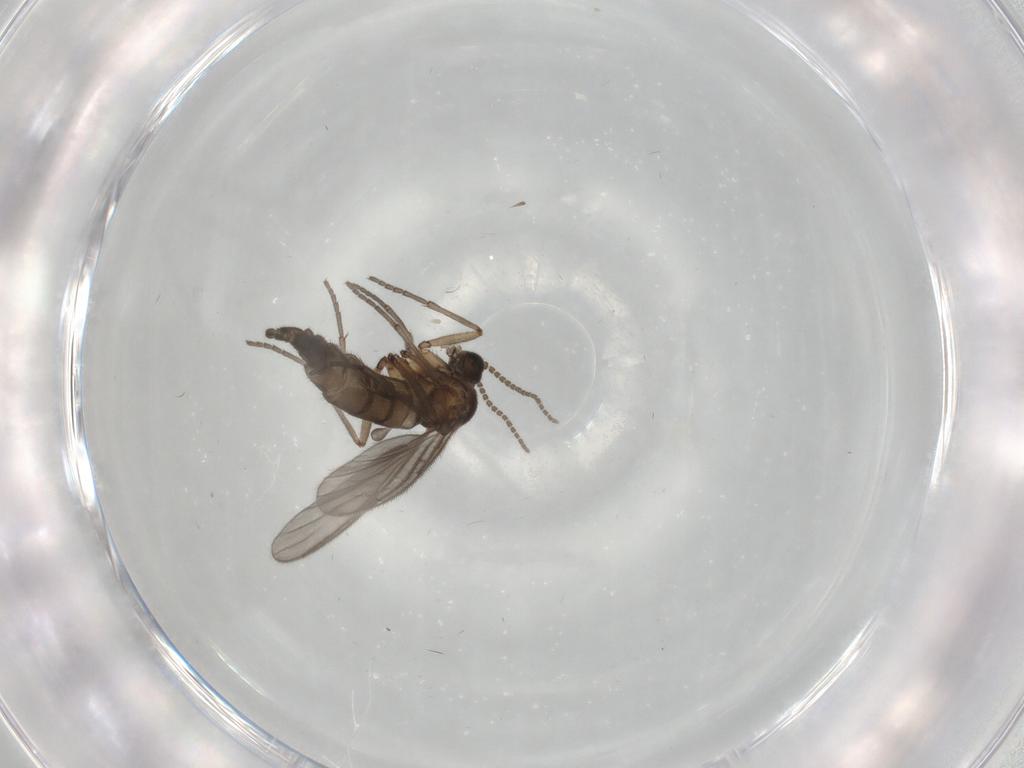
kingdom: Animalia
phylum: Arthropoda
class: Insecta
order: Diptera
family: Sciaridae
